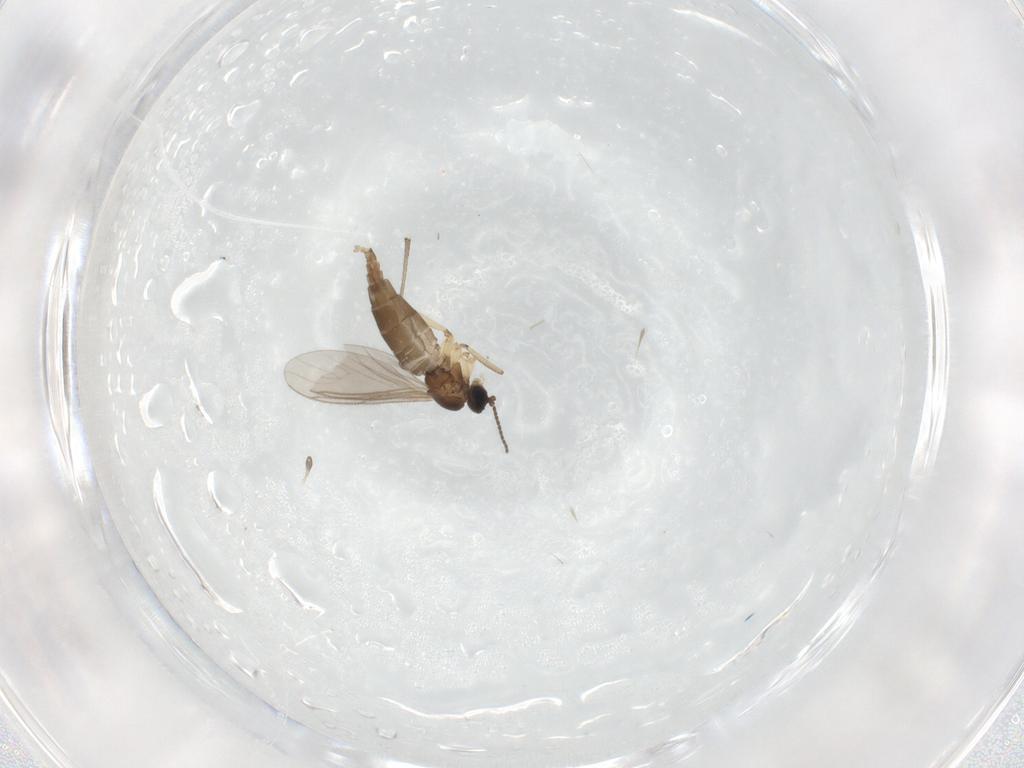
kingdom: Animalia
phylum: Arthropoda
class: Insecta
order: Diptera
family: Sciaridae
